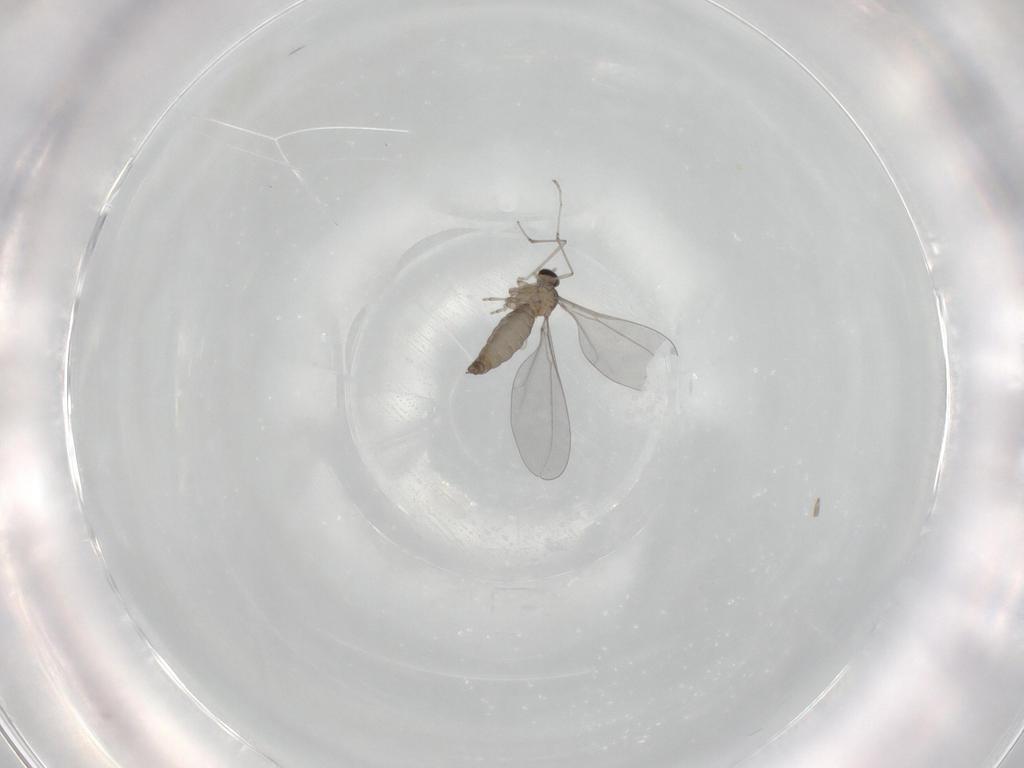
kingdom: Animalia
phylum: Arthropoda
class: Insecta
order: Diptera
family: Cecidomyiidae
